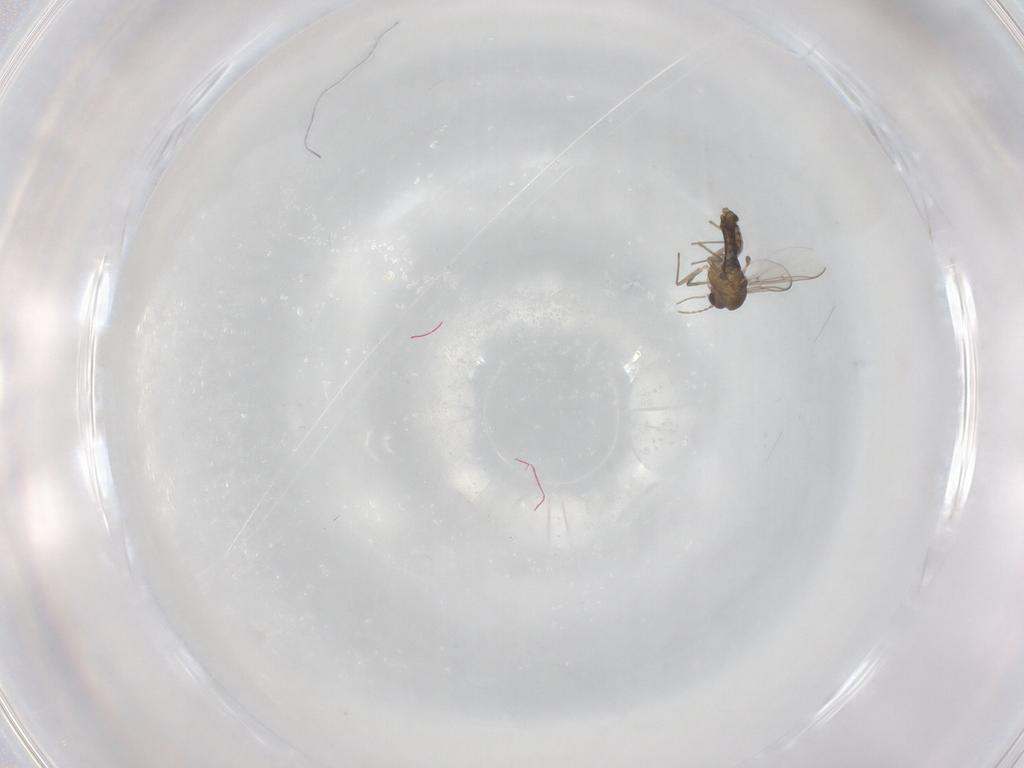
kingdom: Animalia
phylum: Arthropoda
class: Insecta
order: Diptera
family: Chironomidae
